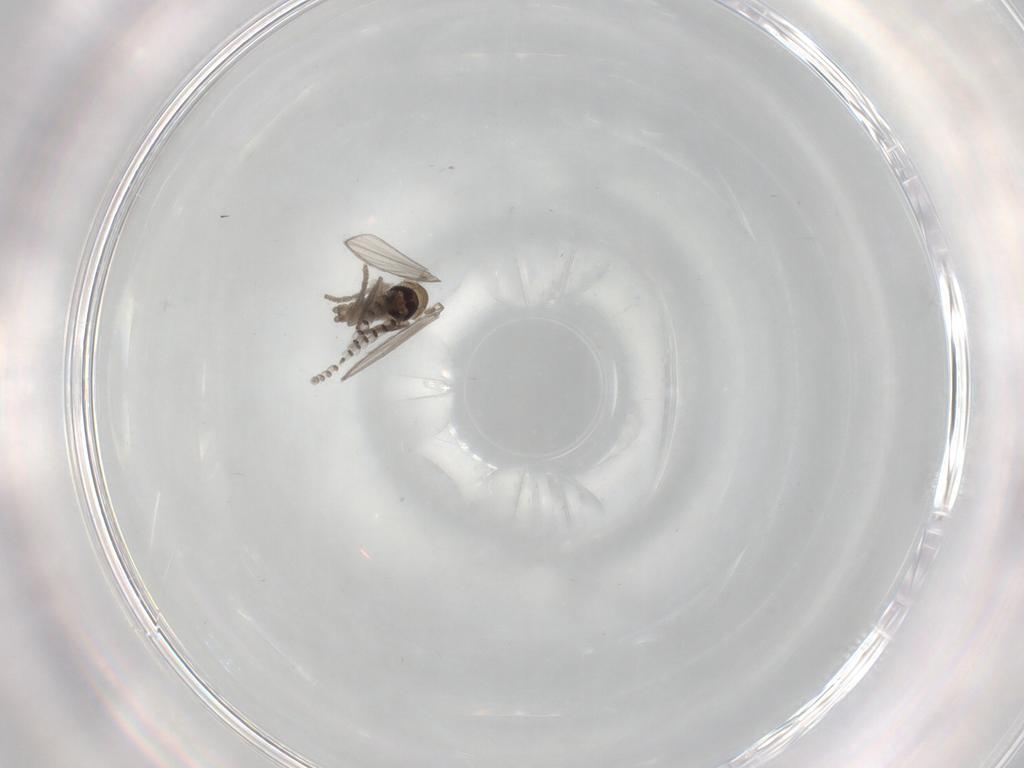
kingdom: Animalia
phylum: Arthropoda
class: Insecta
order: Diptera
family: Psychodidae
